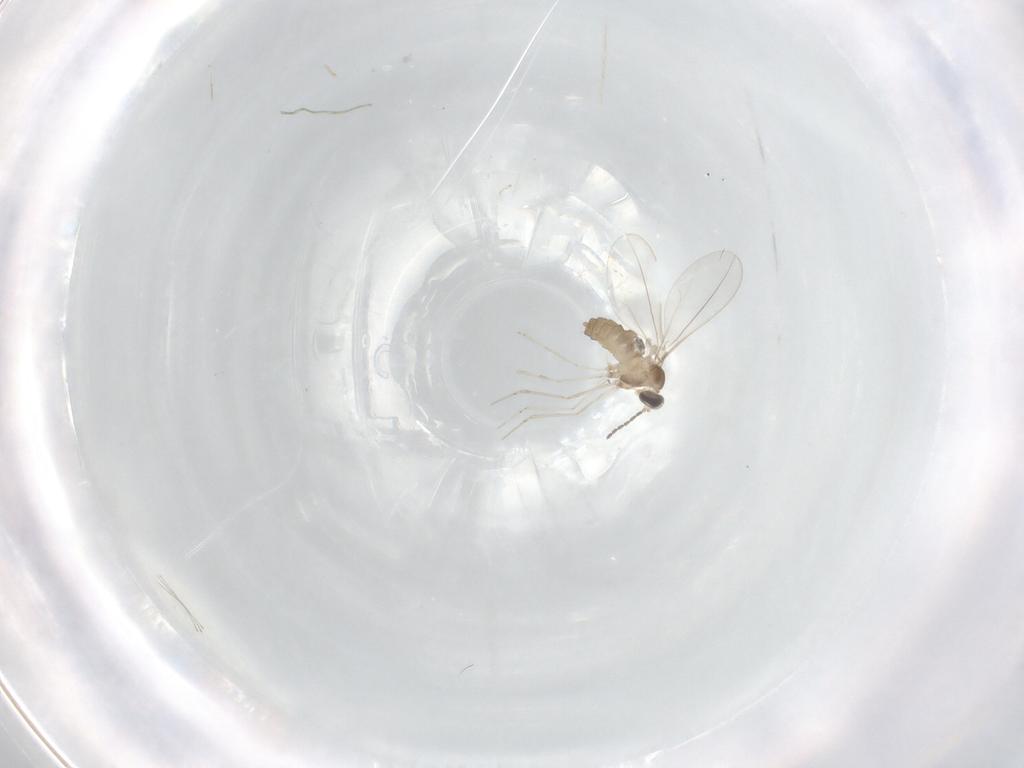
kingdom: Animalia
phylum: Arthropoda
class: Insecta
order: Diptera
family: Cecidomyiidae
